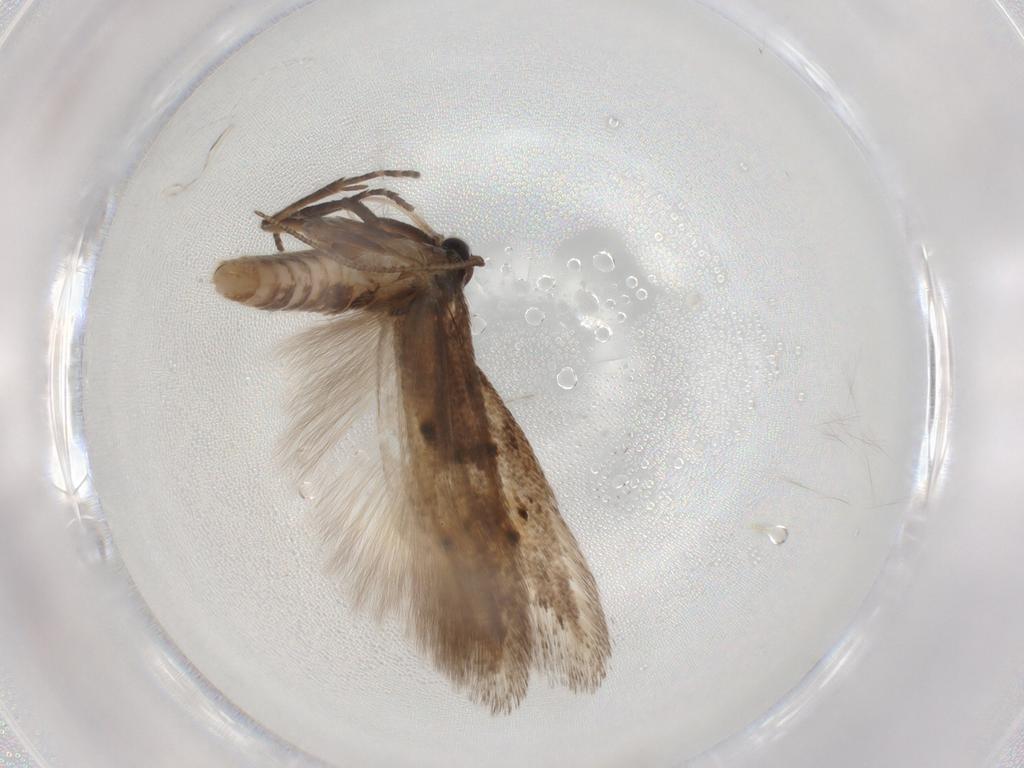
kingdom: Animalia
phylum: Arthropoda
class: Insecta
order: Lepidoptera
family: Gelechiidae
